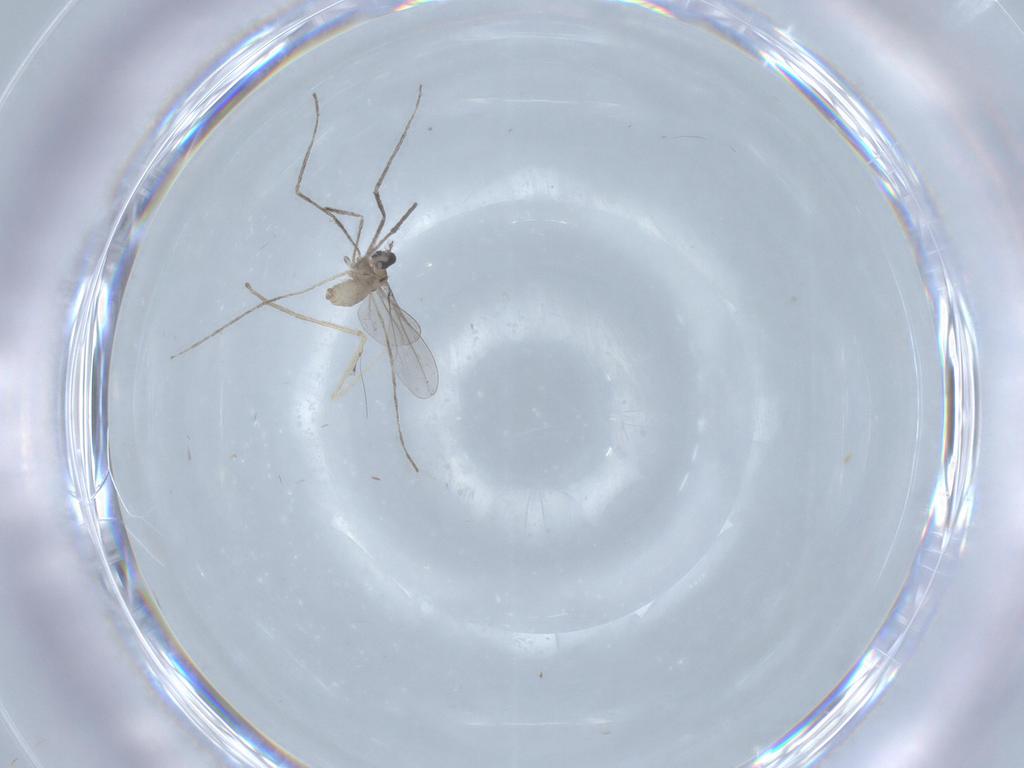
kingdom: Animalia
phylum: Arthropoda
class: Insecta
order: Diptera
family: Cecidomyiidae
